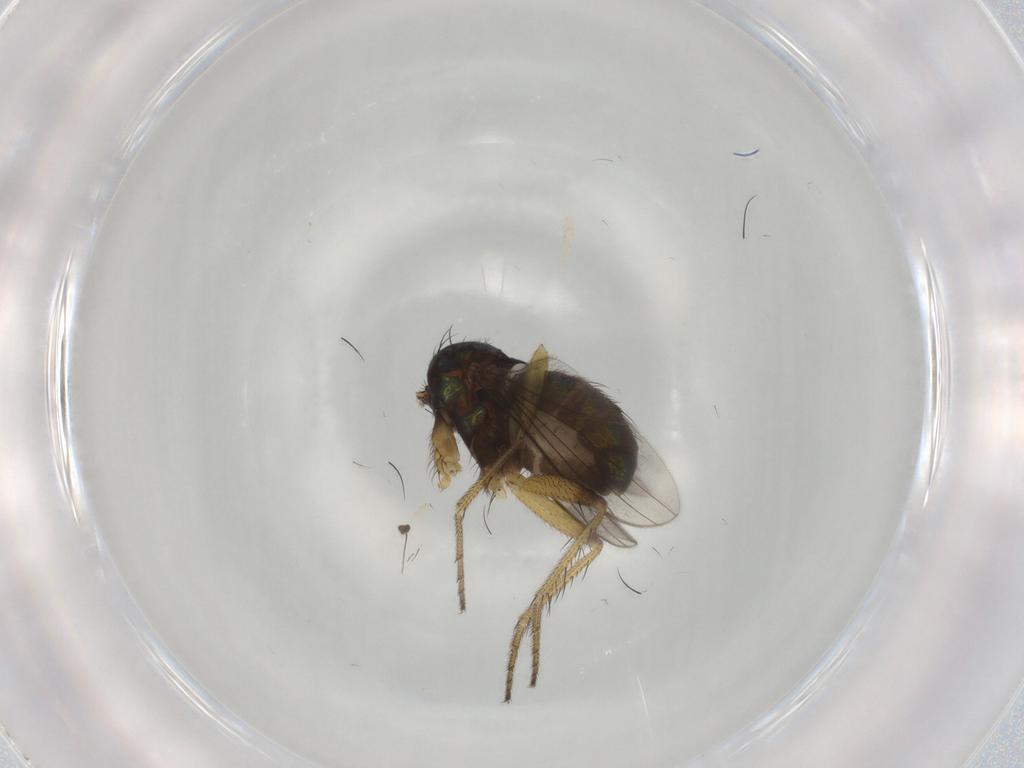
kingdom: Animalia
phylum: Arthropoda
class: Insecta
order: Diptera
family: Dolichopodidae
